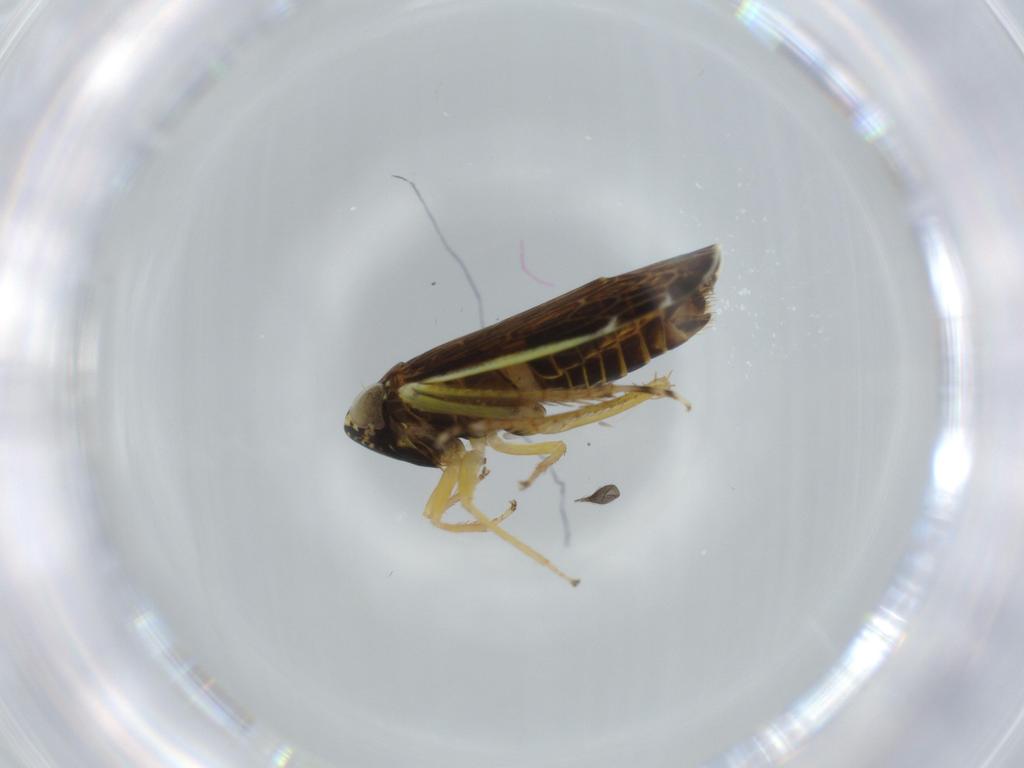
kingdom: Animalia
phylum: Arthropoda
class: Insecta
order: Hemiptera
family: Cicadellidae
